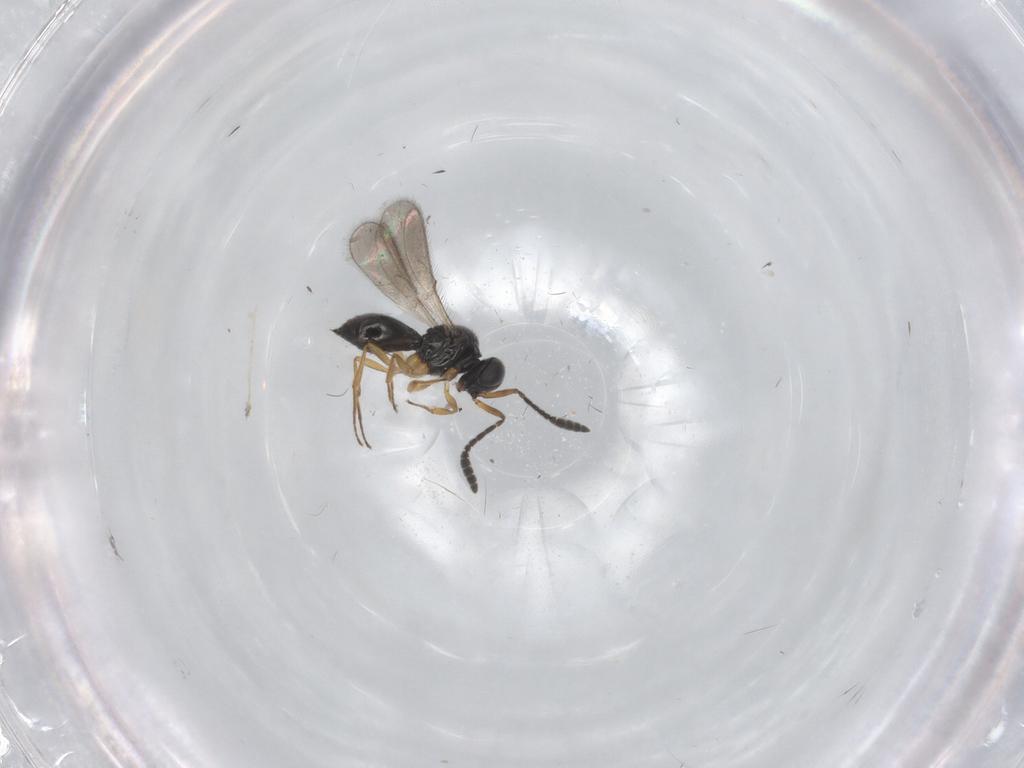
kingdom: Animalia
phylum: Arthropoda
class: Insecta
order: Hymenoptera
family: Scelionidae
